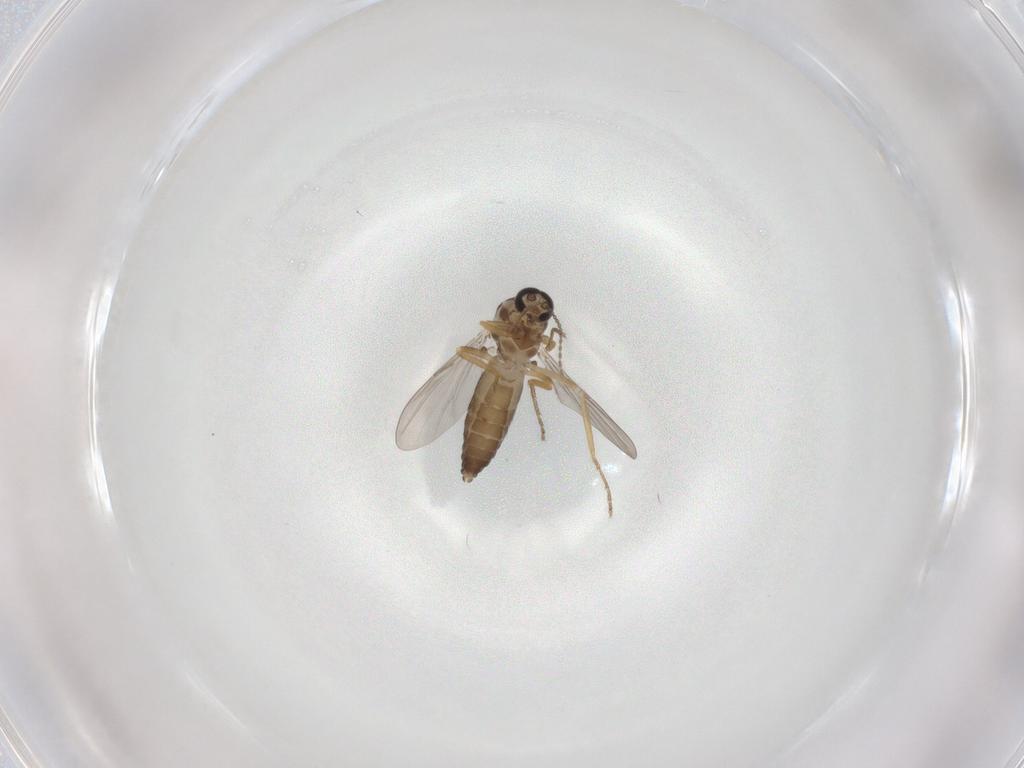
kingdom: Animalia
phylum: Arthropoda
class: Insecta
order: Diptera
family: Ceratopogonidae
